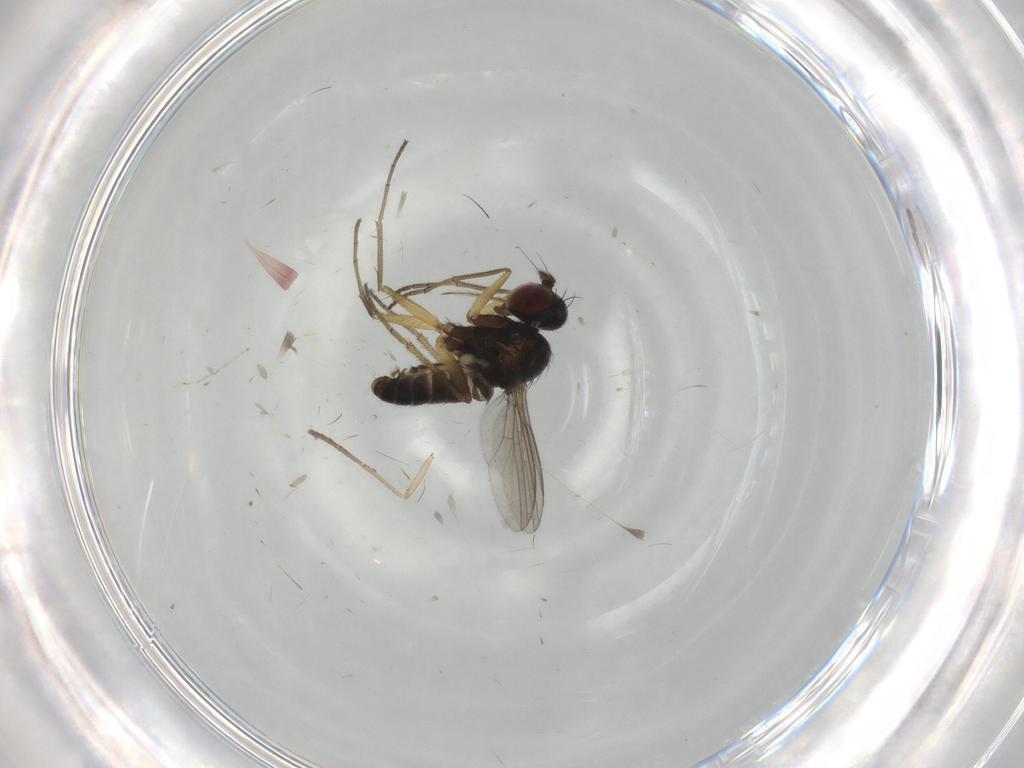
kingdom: Animalia
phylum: Arthropoda
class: Insecta
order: Diptera
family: Dolichopodidae
